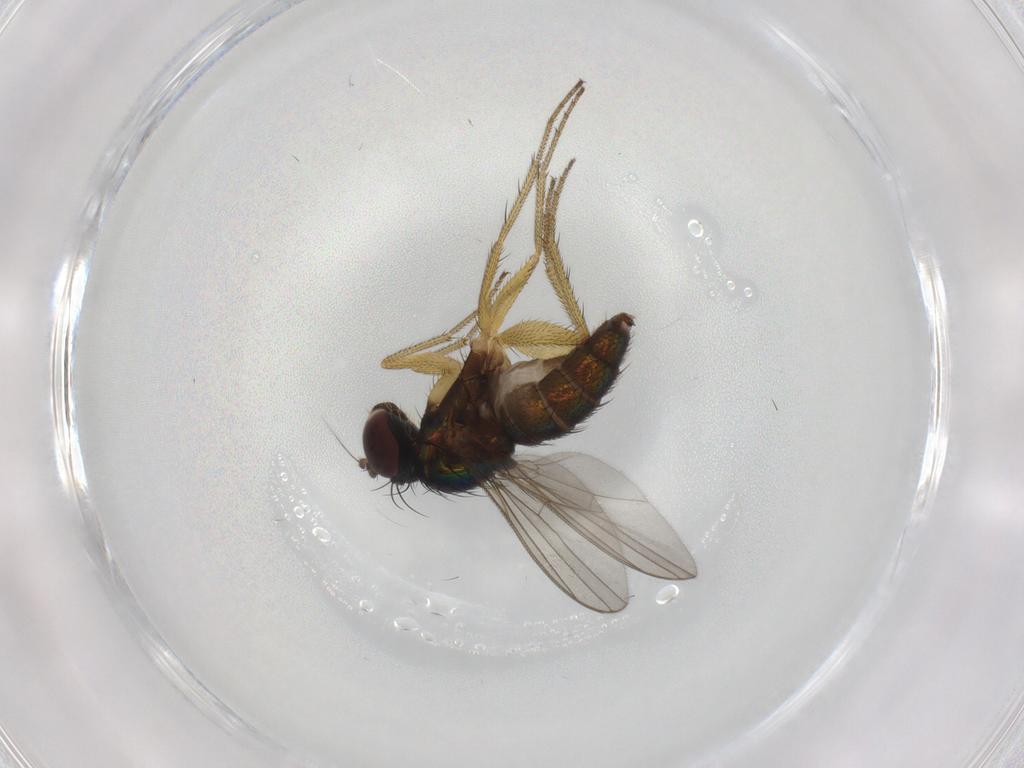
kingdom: Animalia
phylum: Arthropoda
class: Insecta
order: Diptera
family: Dolichopodidae
